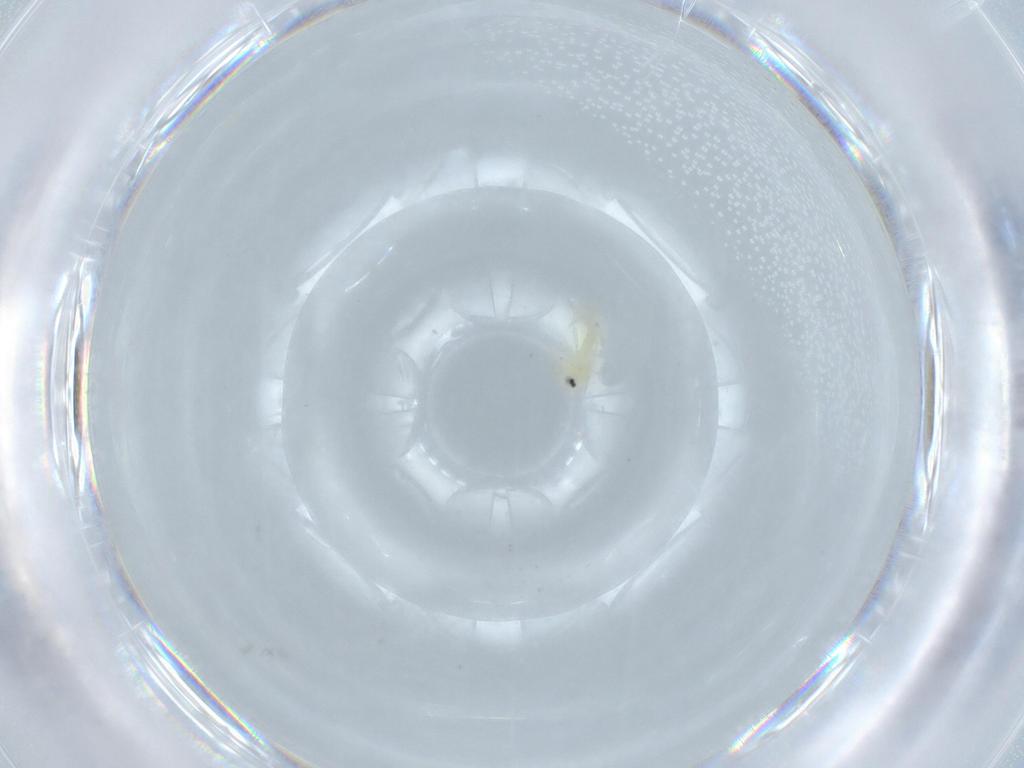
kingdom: Animalia
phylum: Arthropoda
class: Insecta
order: Hemiptera
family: Aleyrodidae
